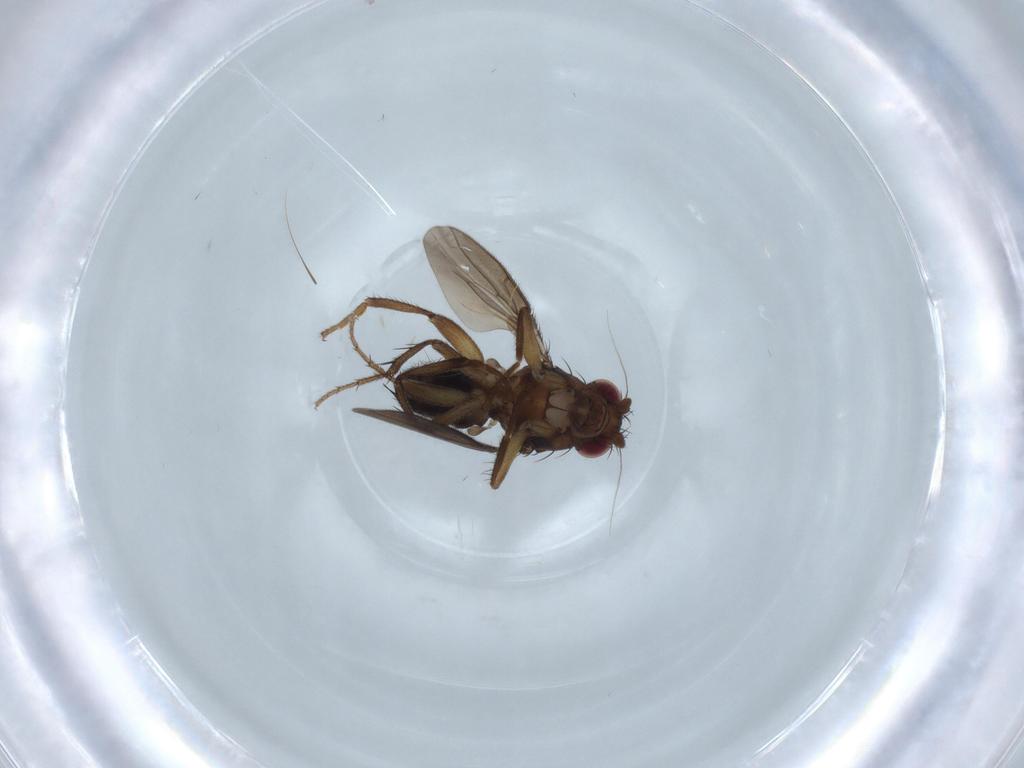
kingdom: Animalia
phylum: Arthropoda
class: Insecta
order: Diptera
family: Sphaeroceridae
